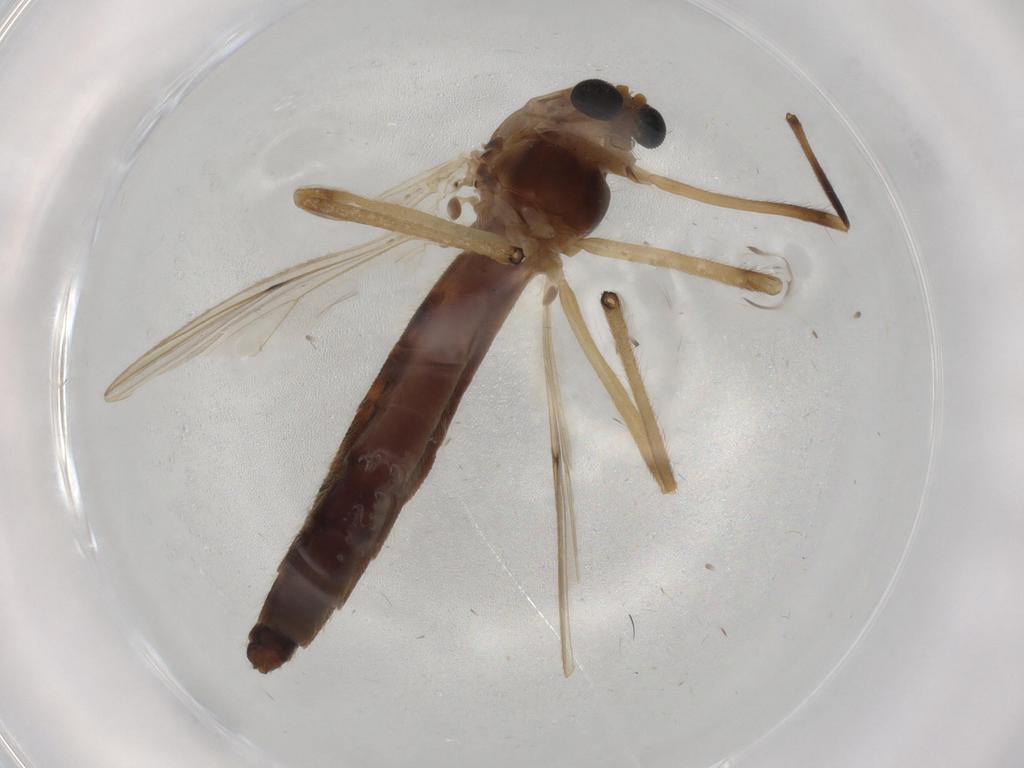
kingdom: Animalia
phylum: Arthropoda
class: Insecta
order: Diptera
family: Chironomidae
